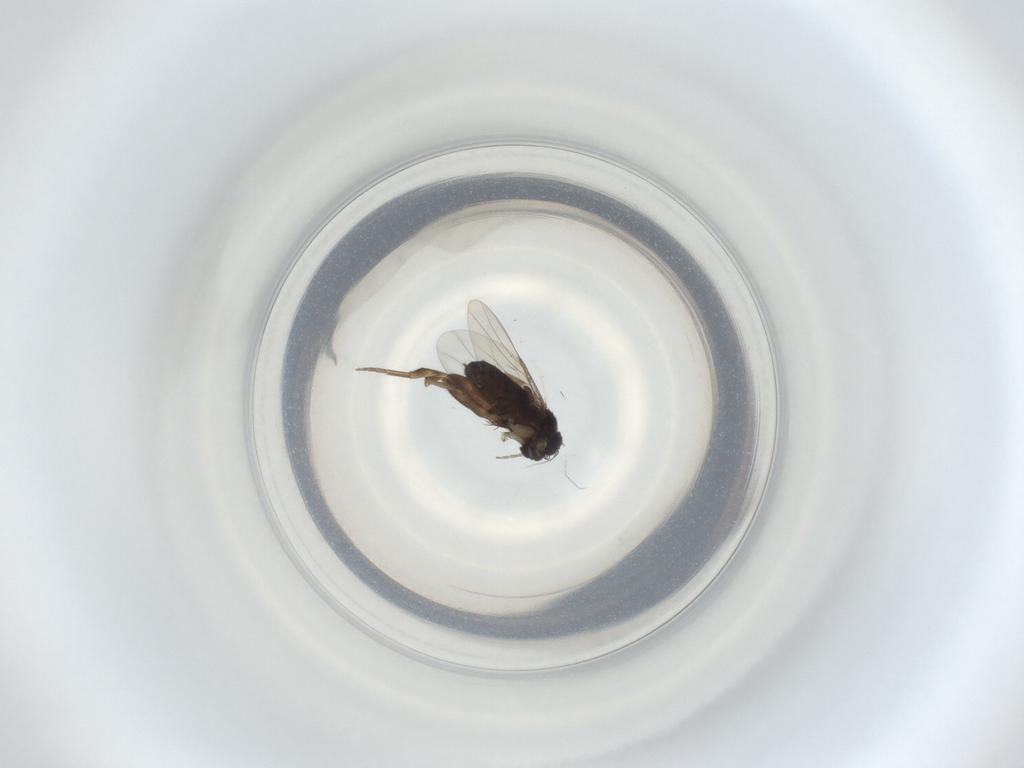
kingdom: Animalia
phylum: Arthropoda
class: Insecta
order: Diptera
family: Phoridae
